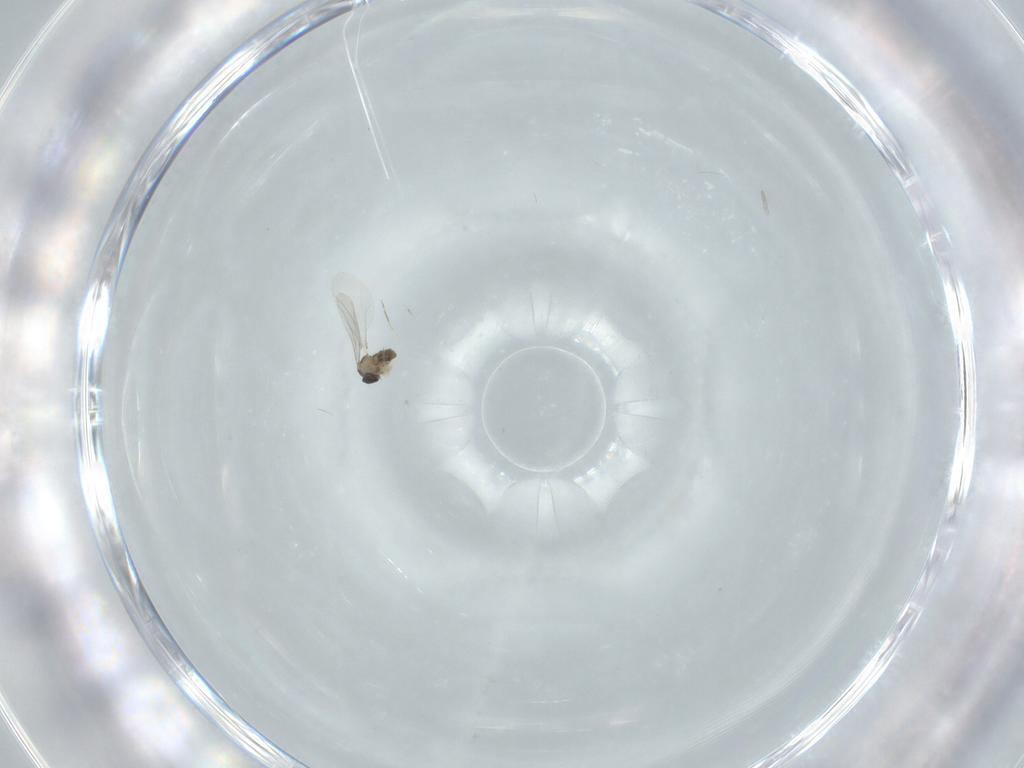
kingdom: Animalia
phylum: Arthropoda
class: Insecta
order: Diptera
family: Cecidomyiidae
